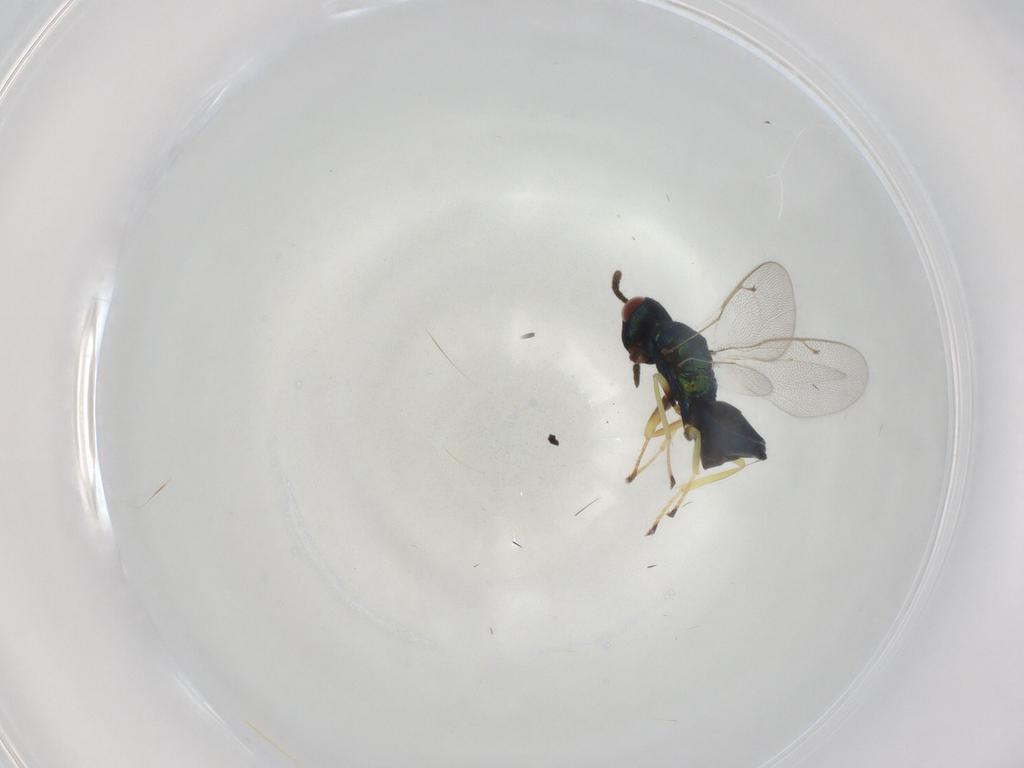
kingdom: Animalia
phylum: Arthropoda
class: Insecta
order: Hymenoptera
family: Pteromalidae
